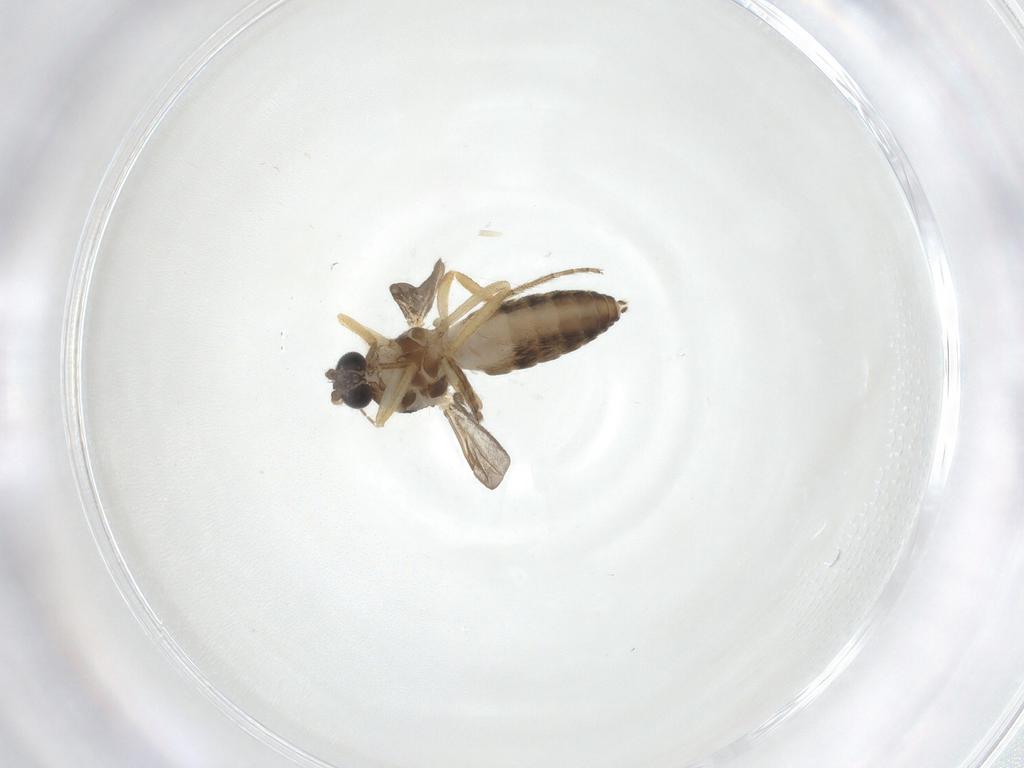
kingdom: Animalia
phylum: Arthropoda
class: Insecta
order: Diptera
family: Ceratopogonidae
